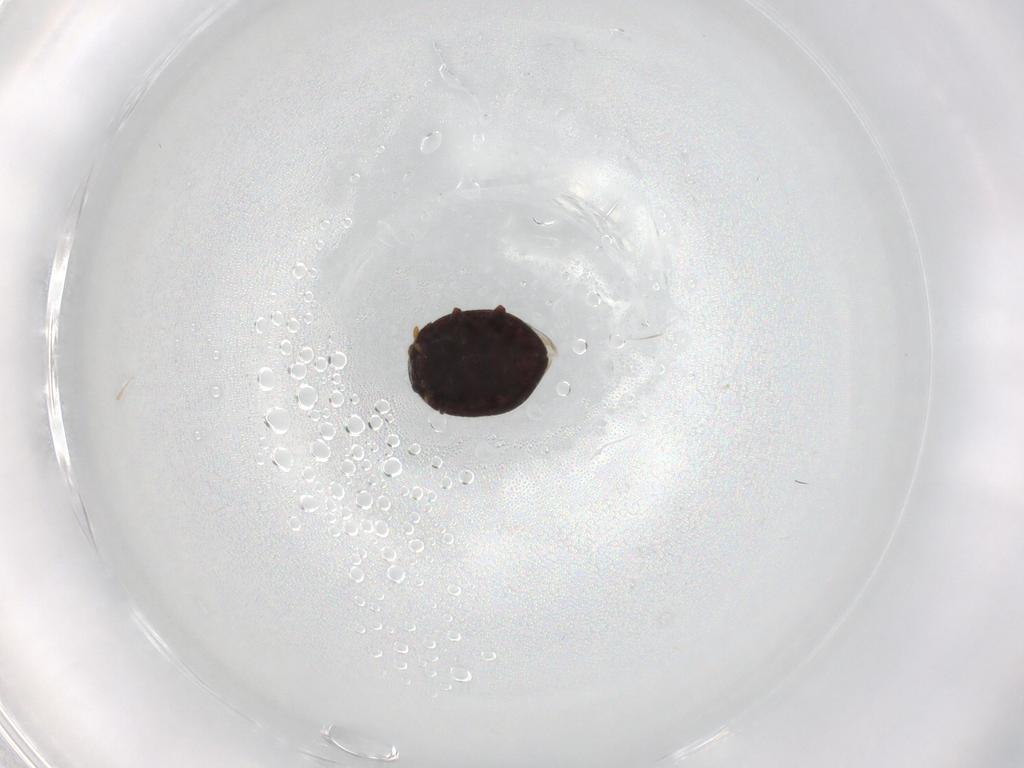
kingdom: Animalia
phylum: Arthropoda
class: Insecta
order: Coleoptera
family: Coccinellidae
